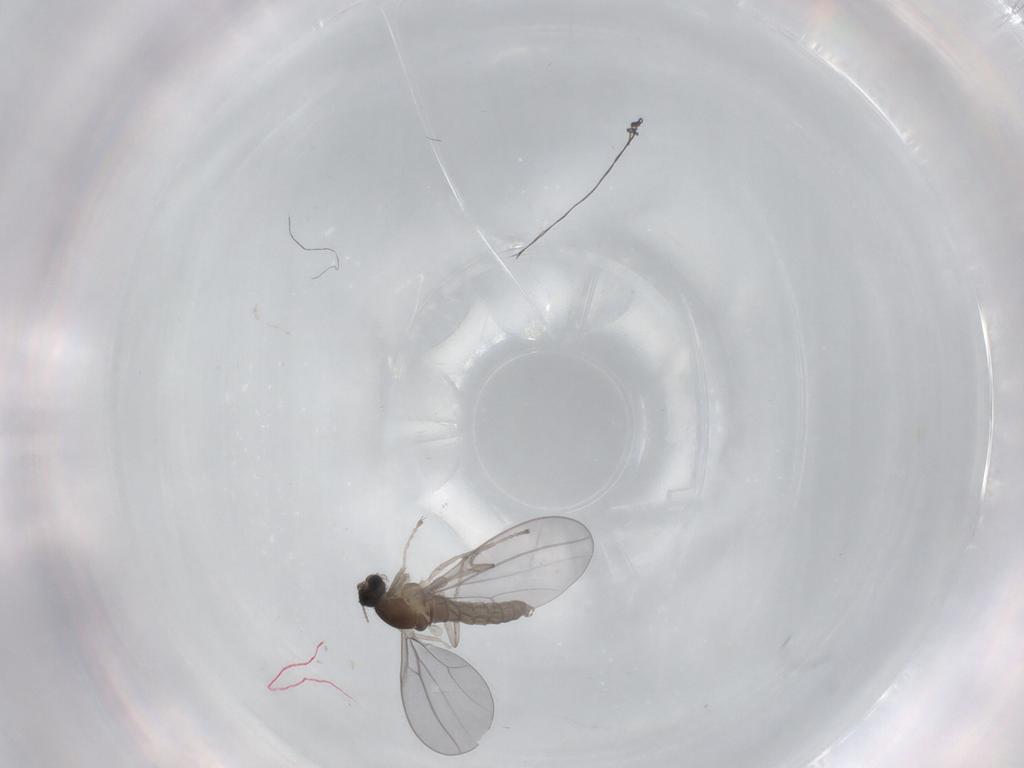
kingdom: Animalia
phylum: Arthropoda
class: Insecta
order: Diptera
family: Cecidomyiidae
